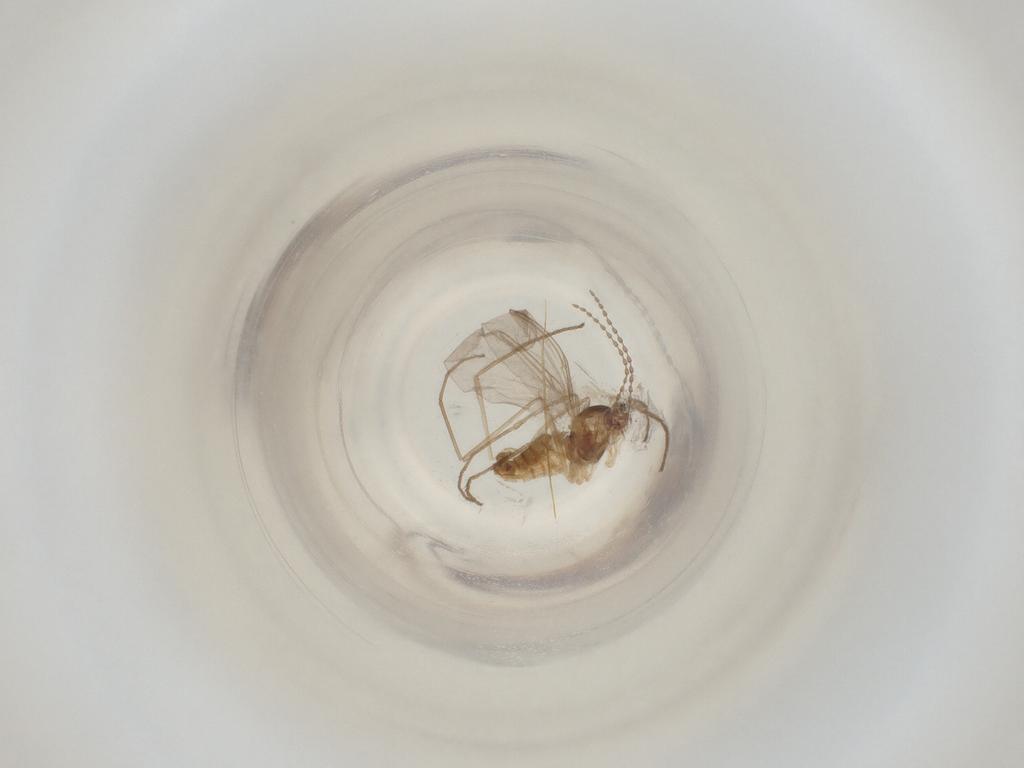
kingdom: Animalia
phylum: Arthropoda
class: Insecta
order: Diptera
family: Cecidomyiidae
